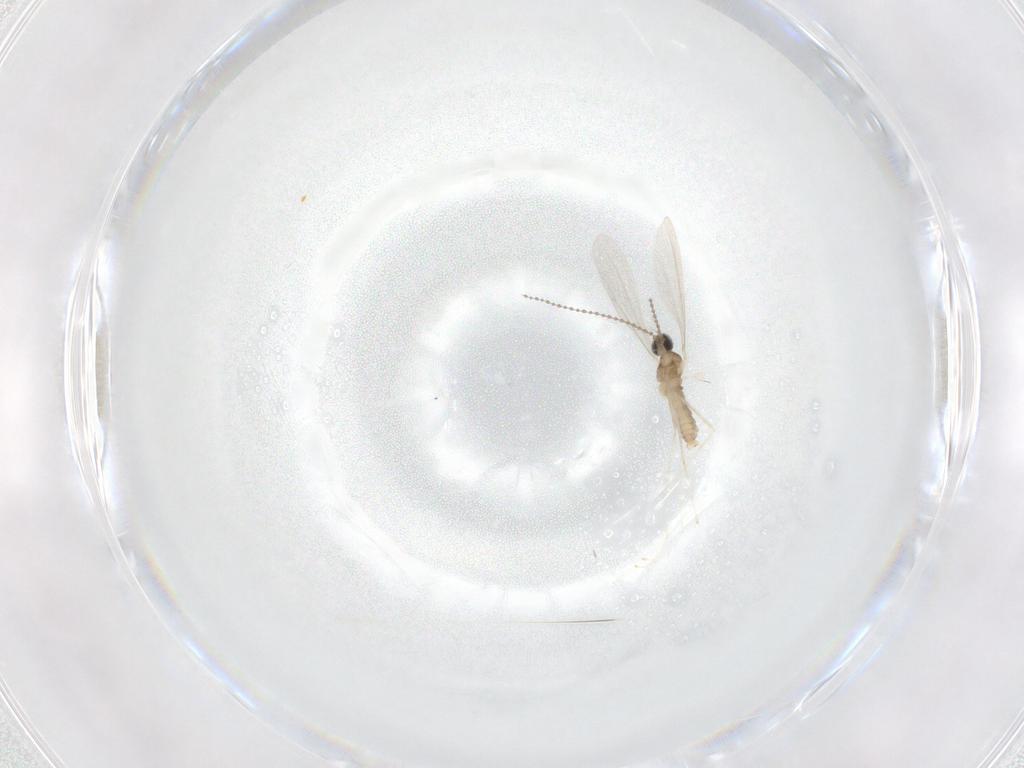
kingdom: Animalia
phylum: Arthropoda
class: Insecta
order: Diptera
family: Cecidomyiidae
